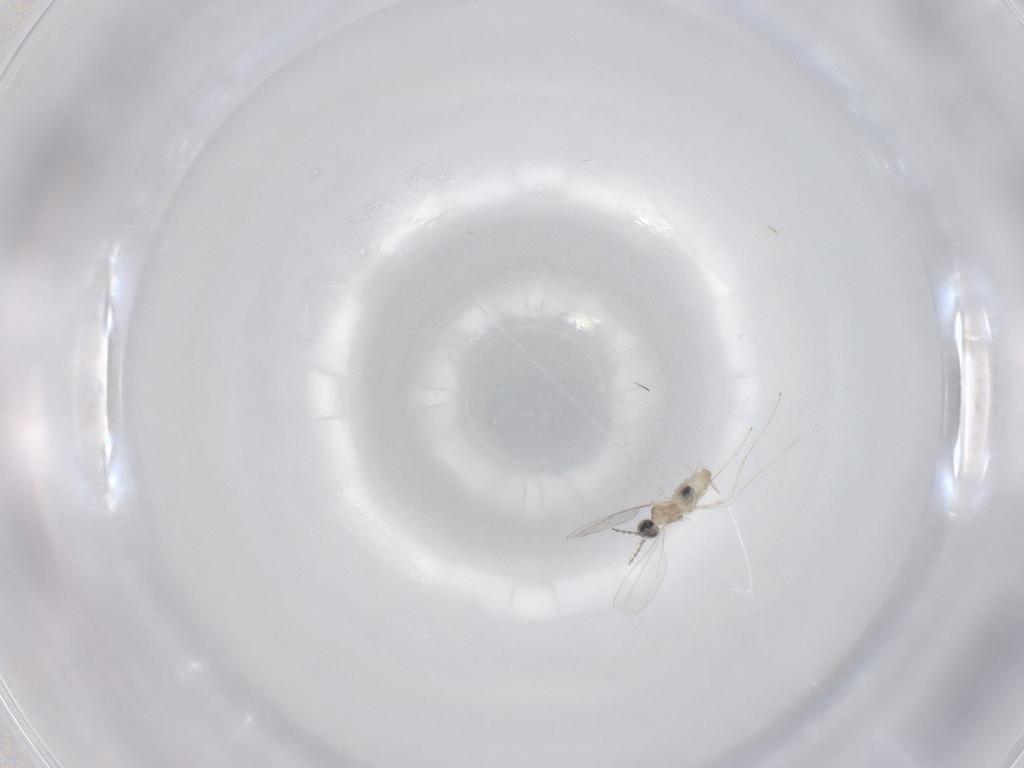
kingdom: Animalia
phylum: Arthropoda
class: Insecta
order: Diptera
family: Cecidomyiidae
